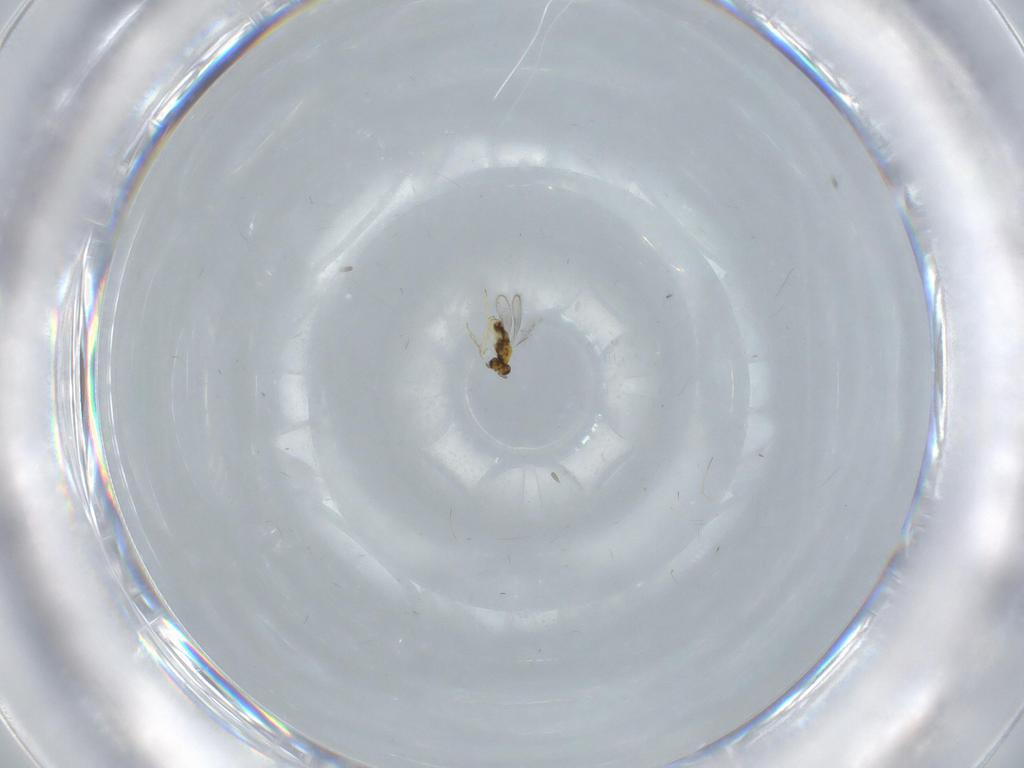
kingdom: Animalia
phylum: Arthropoda
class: Insecta
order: Hymenoptera
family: Aphelinidae
